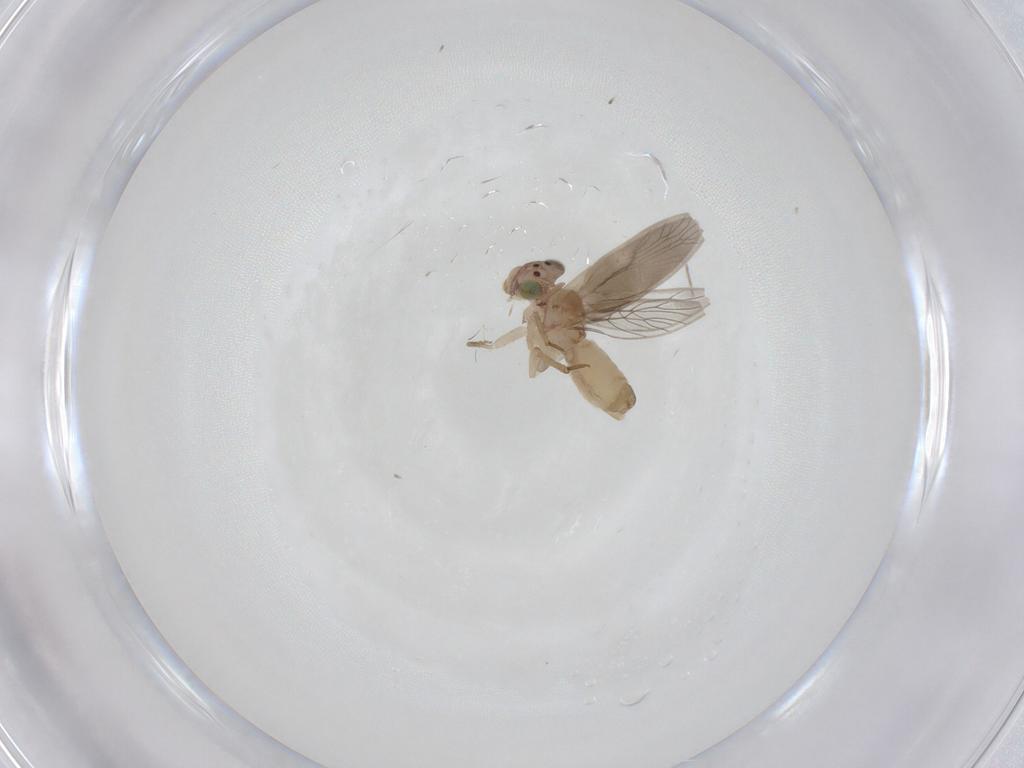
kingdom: Animalia
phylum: Arthropoda
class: Insecta
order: Psocodea
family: Lepidopsocidae
